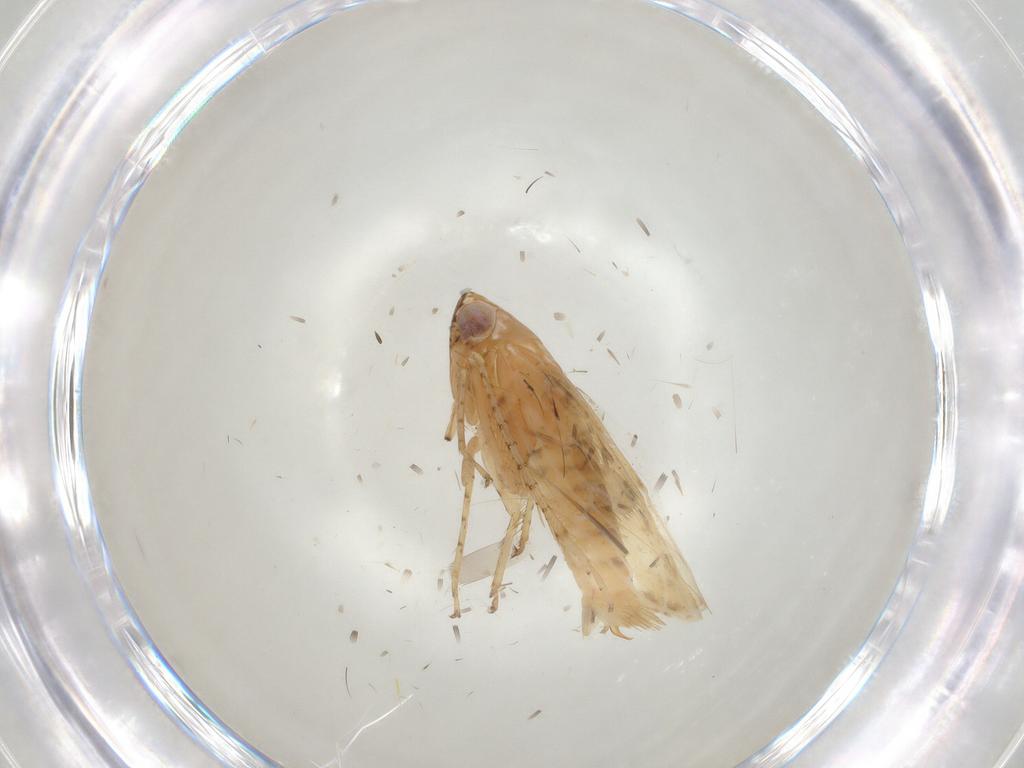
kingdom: Animalia
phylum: Arthropoda
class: Insecta
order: Hemiptera
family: Cicadellidae
